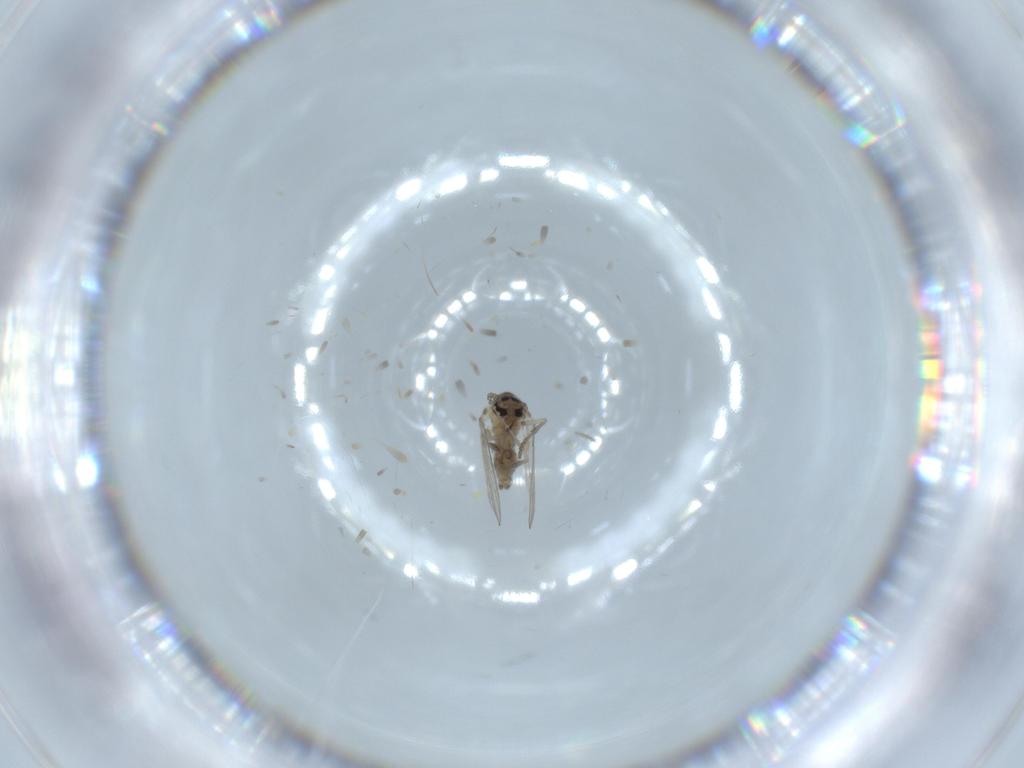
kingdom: Animalia
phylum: Arthropoda
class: Insecta
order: Diptera
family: Psychodidae
